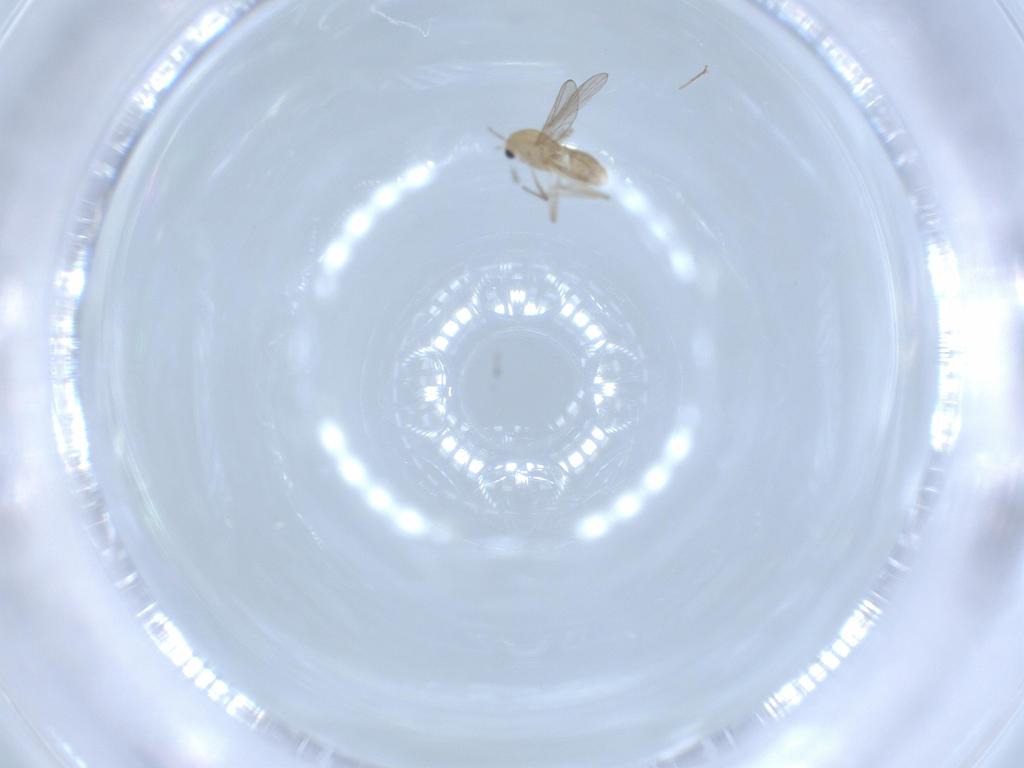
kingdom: Animalia
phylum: Arthropoda
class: Insecta
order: Diptera
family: Chironomidae
